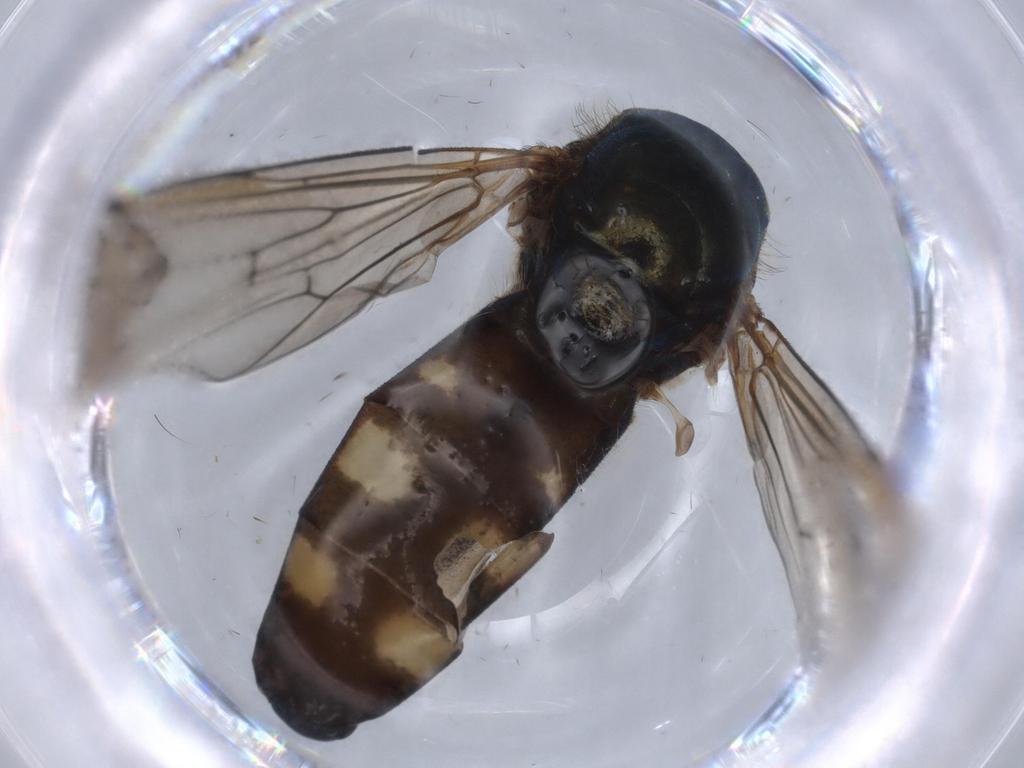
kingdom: Animalia
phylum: Arthropoda
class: Insecta
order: Diptera
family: Syrphidae
